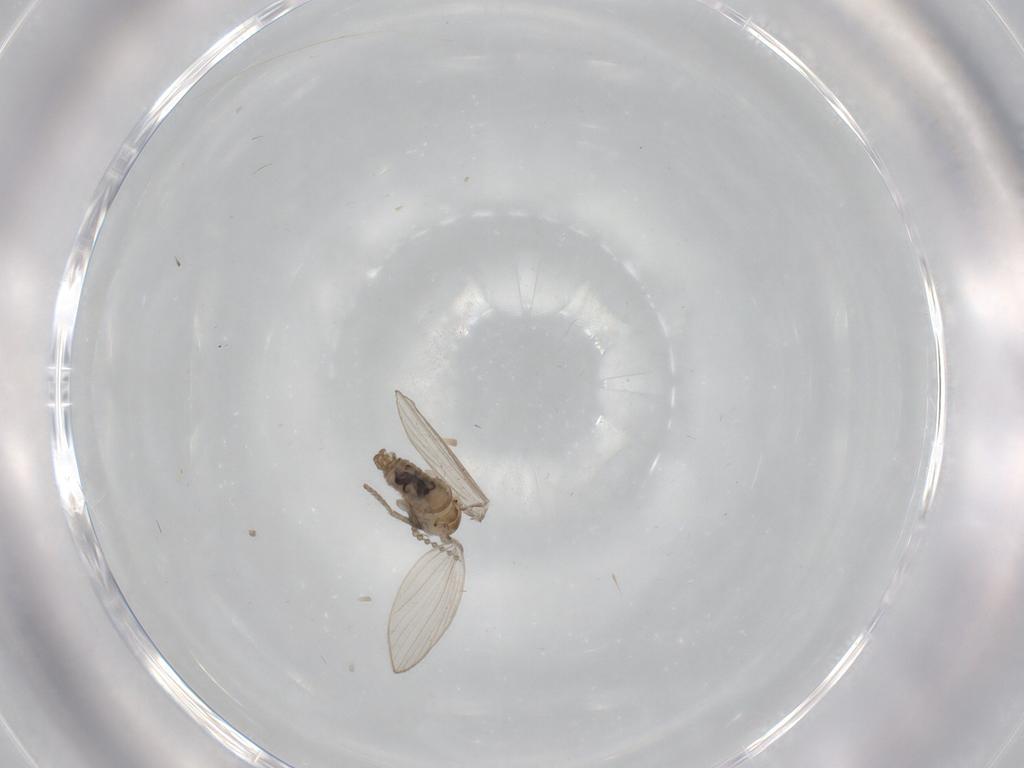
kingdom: Animalia
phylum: Arthropoda
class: Insecta
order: Diptera
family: Psychodidae
